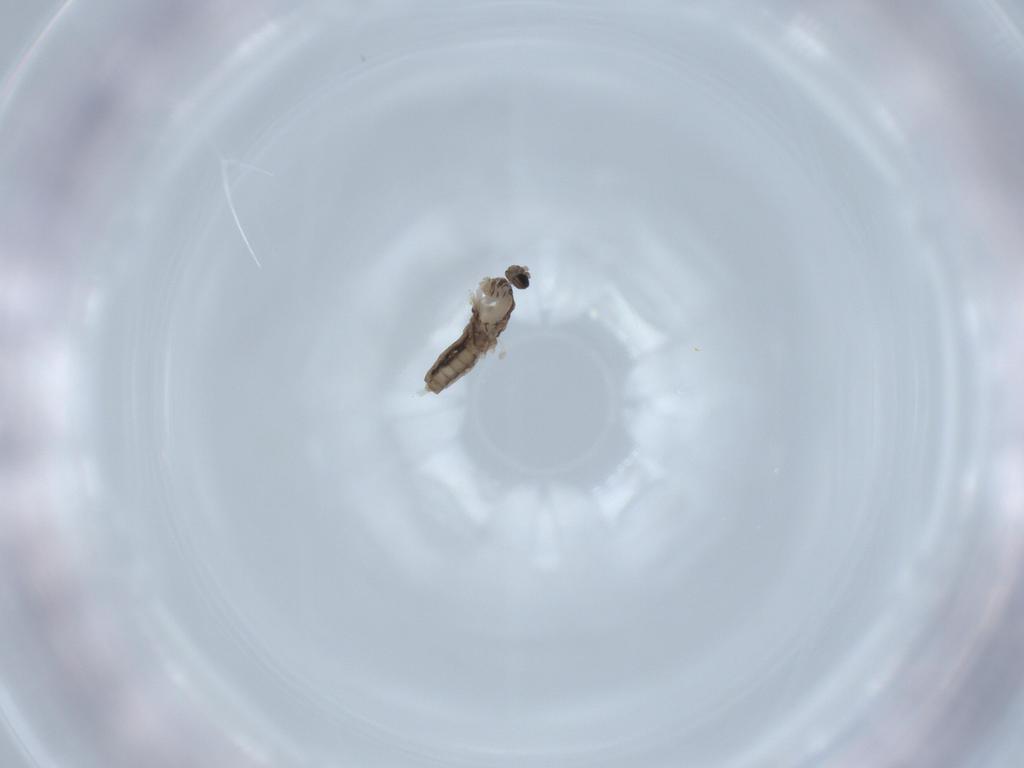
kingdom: Animalia
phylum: Arthropoda
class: Insecta
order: Diptera
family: Cecidomyiidae
